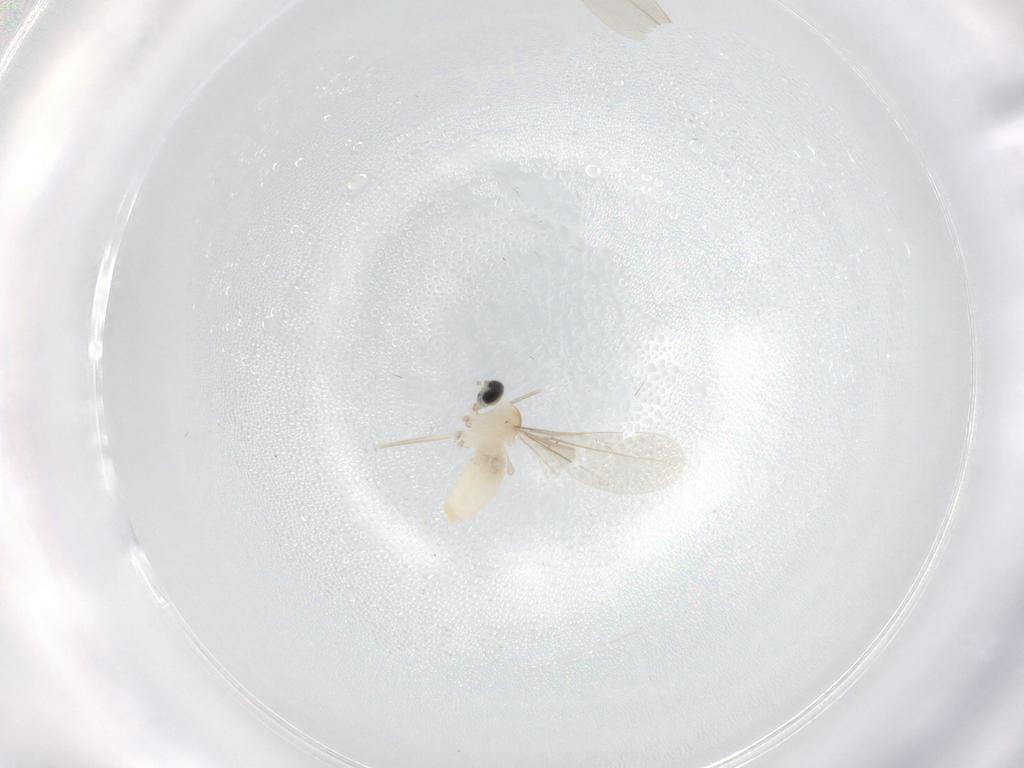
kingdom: Animalia
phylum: Arthropoda
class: Insecta
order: Diptera
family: Cecidomyiidae
